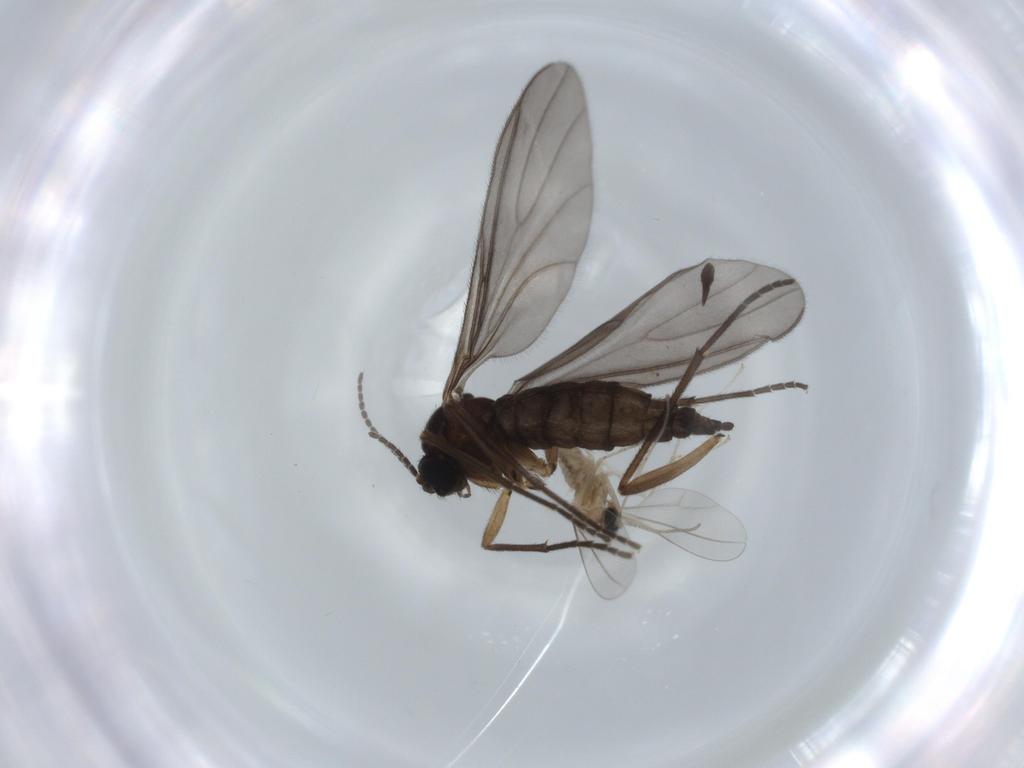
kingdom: Animalia
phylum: Arthropoda
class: Insecta
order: Diptera
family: Sciaridae
